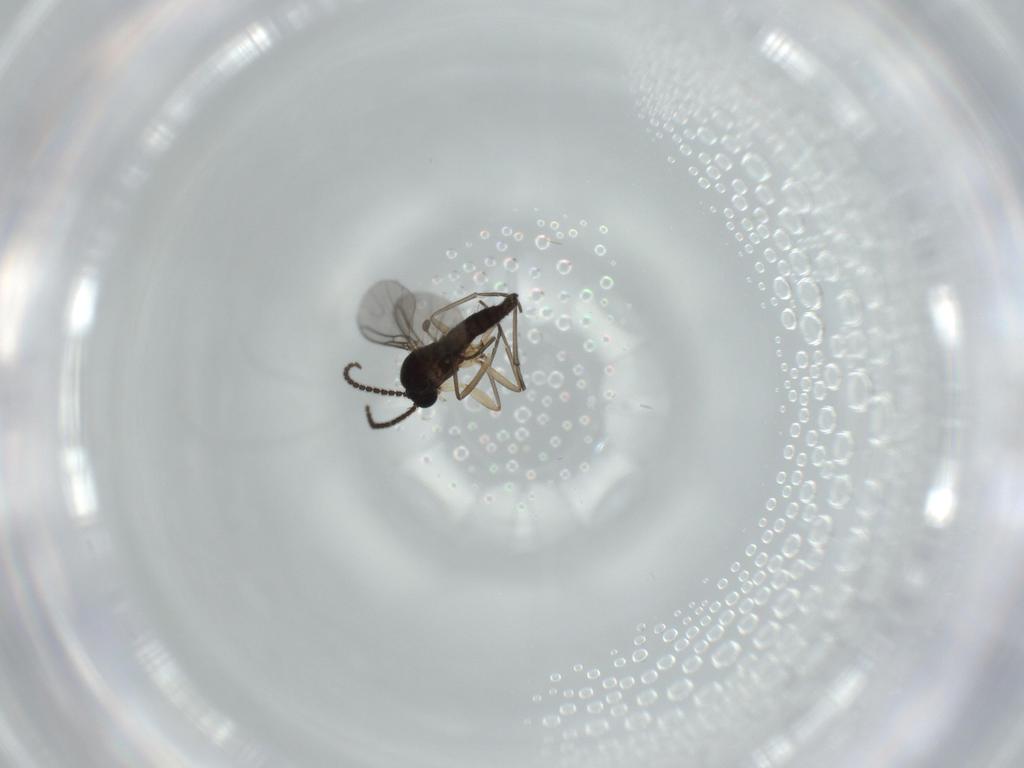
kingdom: Animalia
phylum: Arthropoda
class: Insecta
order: Diptera
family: Sciaridae
